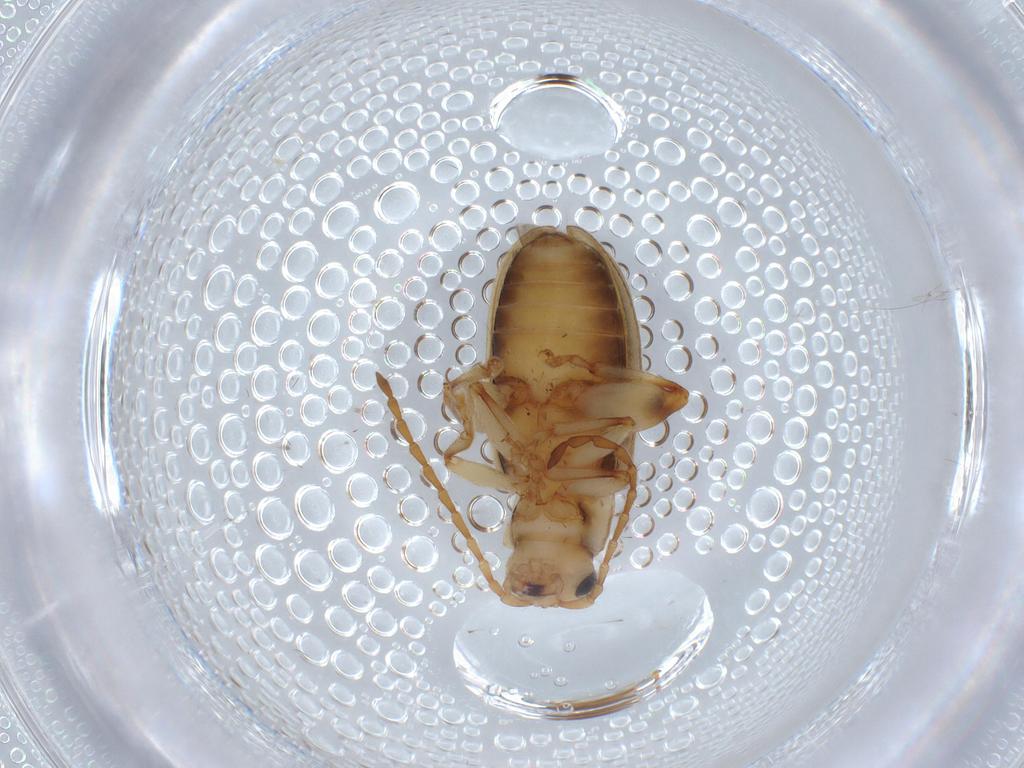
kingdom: Animalia
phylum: Arthropoda
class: Insecta
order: Coleoptera
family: Chrysomelidae
